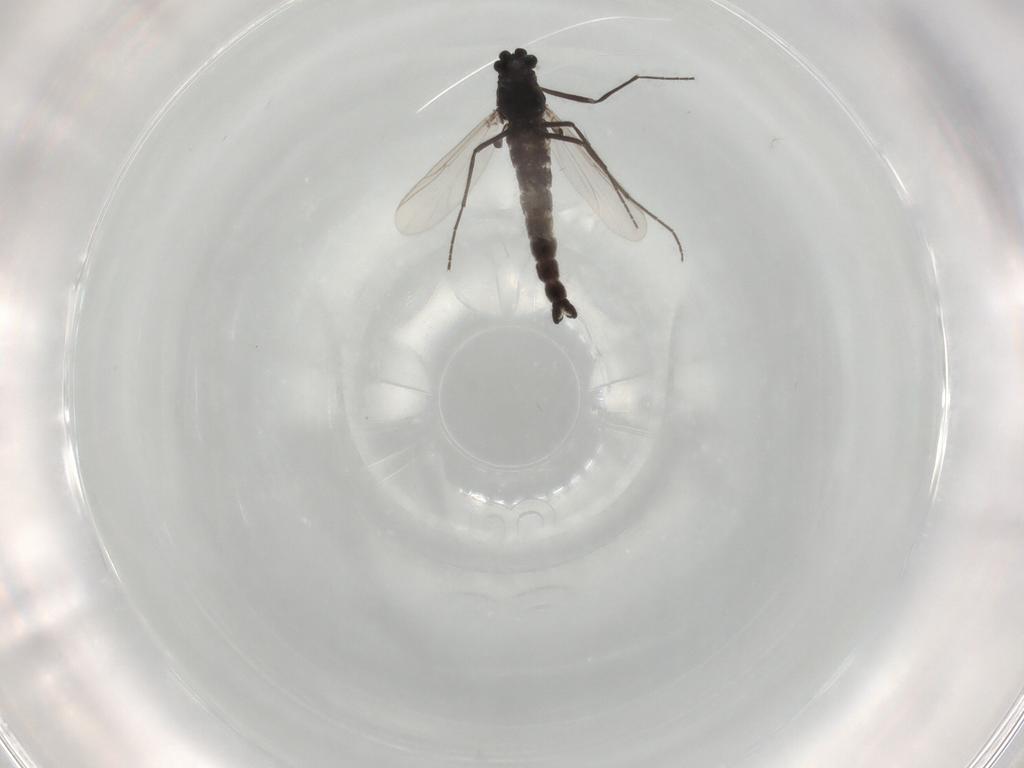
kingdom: Animalia
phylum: Arthropoda
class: Insecta
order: Diptera
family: Chironomidae
